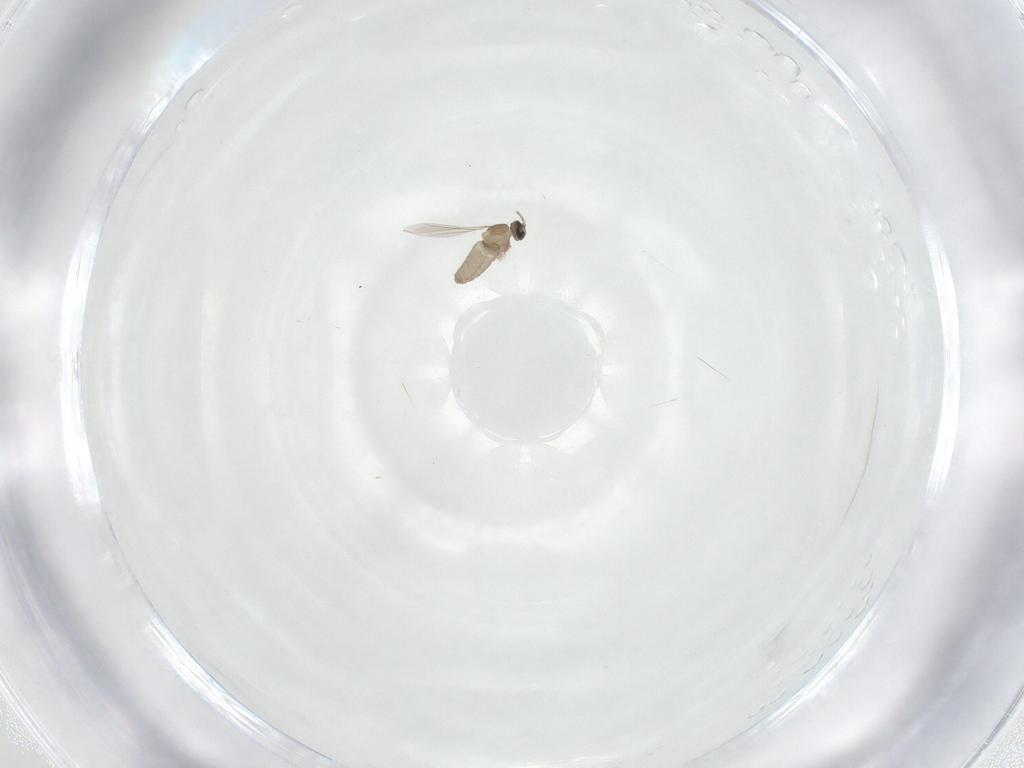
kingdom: Animalia
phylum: Arthropoda
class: Insecta
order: Diptera
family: Cecidomyiidae
